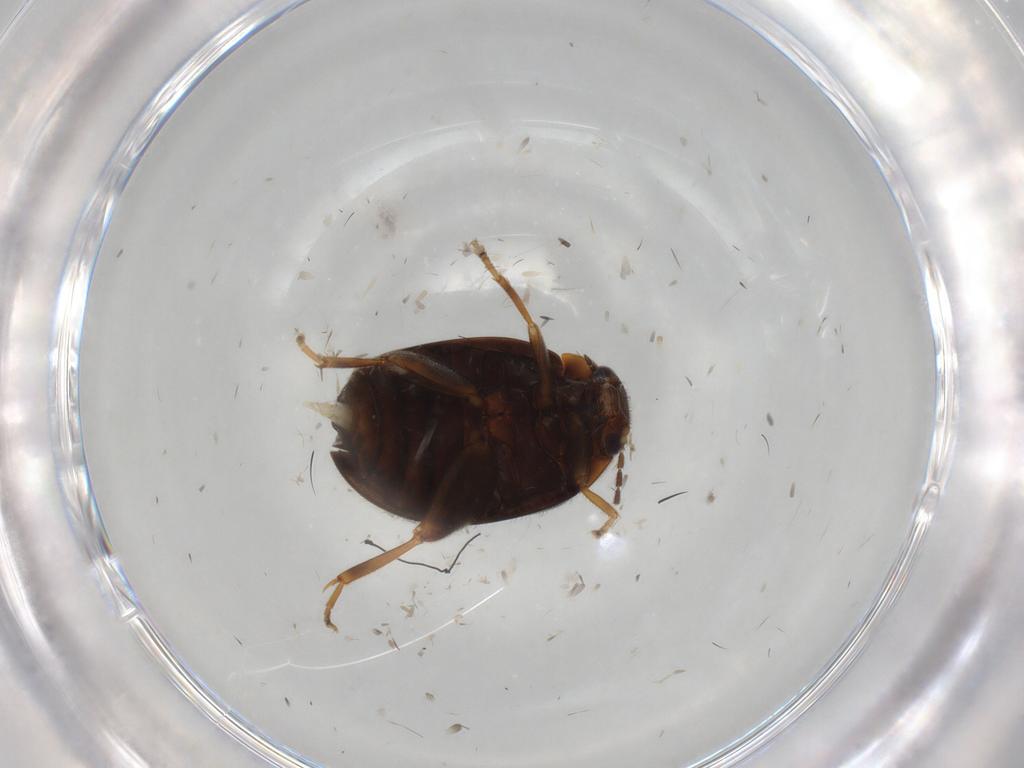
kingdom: Animalia
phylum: Arthropoda
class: Insecta
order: Coleoptera
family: Scirtidae
